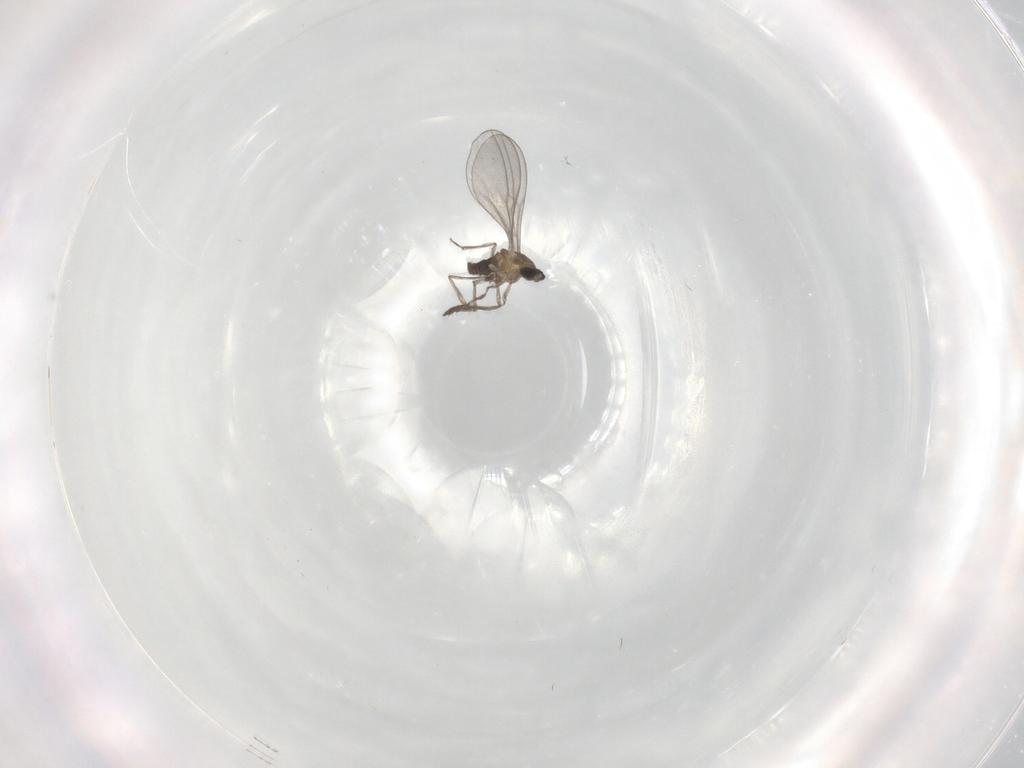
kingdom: Animalia
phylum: Arthropoda
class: Insecta
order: Diptera
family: Cecidomyiidae
